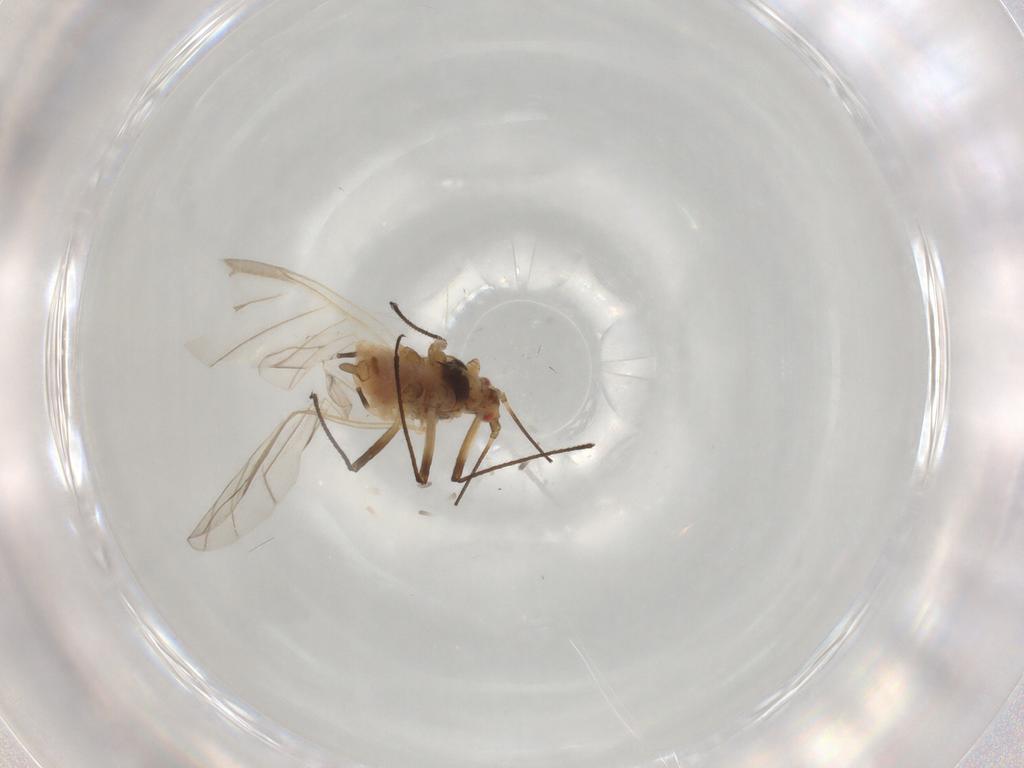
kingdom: Animalia
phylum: Arthropoda
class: Insecta
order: Hemiptera
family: Aphididae
